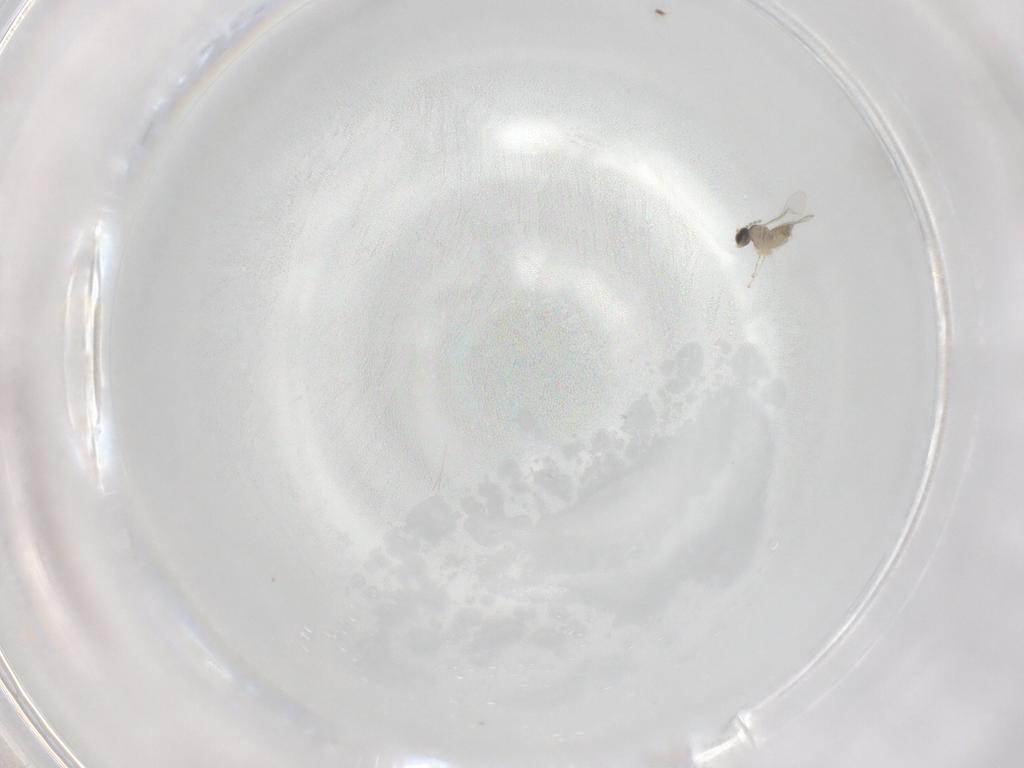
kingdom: Animalia
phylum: Arthropoda
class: Insecta
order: Diptera
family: Cecidomyiidae
